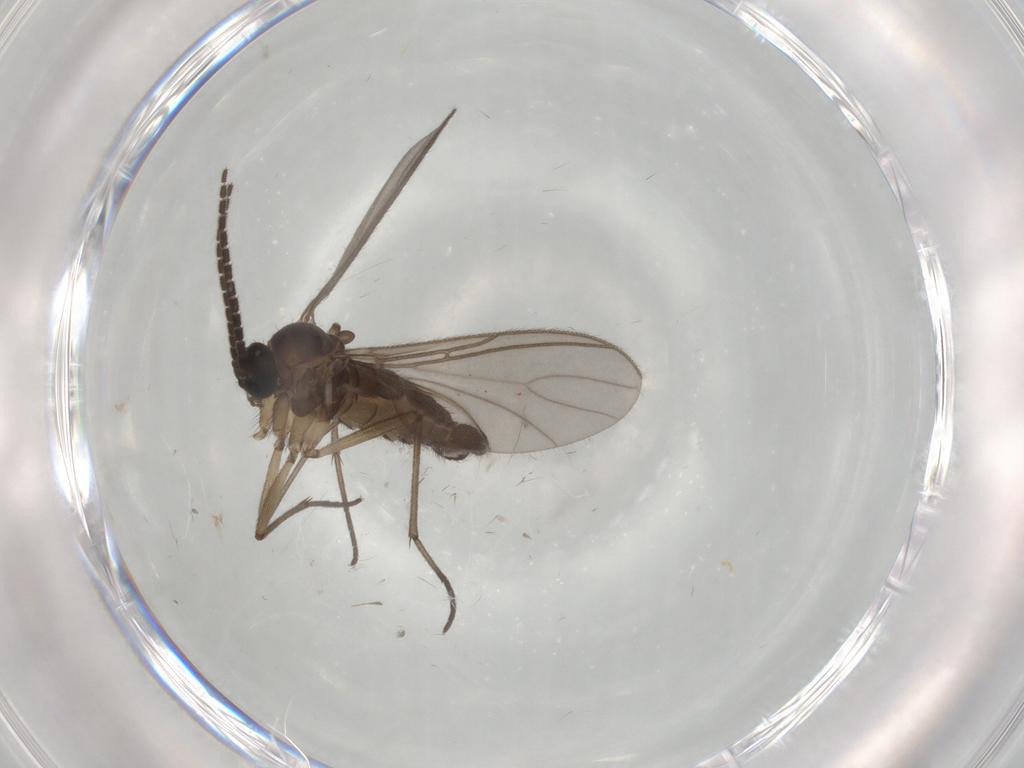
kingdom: Animalia
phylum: Arthropoda
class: Insecta
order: Diptera
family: Sciaridae
